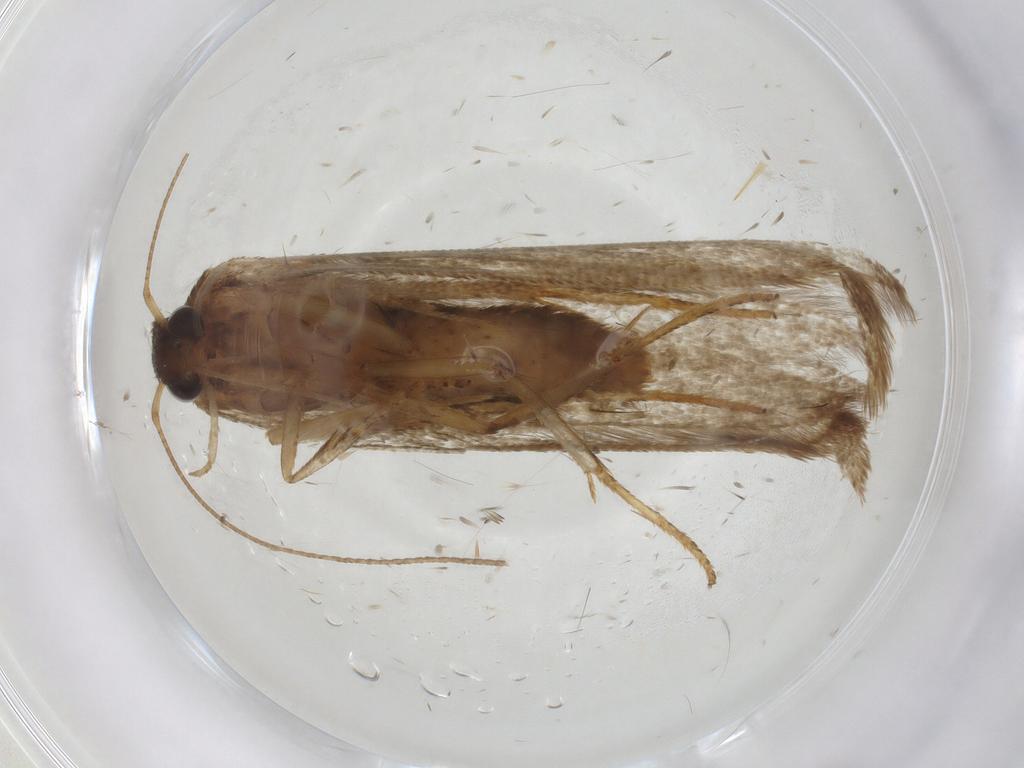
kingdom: Animalia
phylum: Arthropoda
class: Insecta
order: Lepidoptera
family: Blastobasidae
